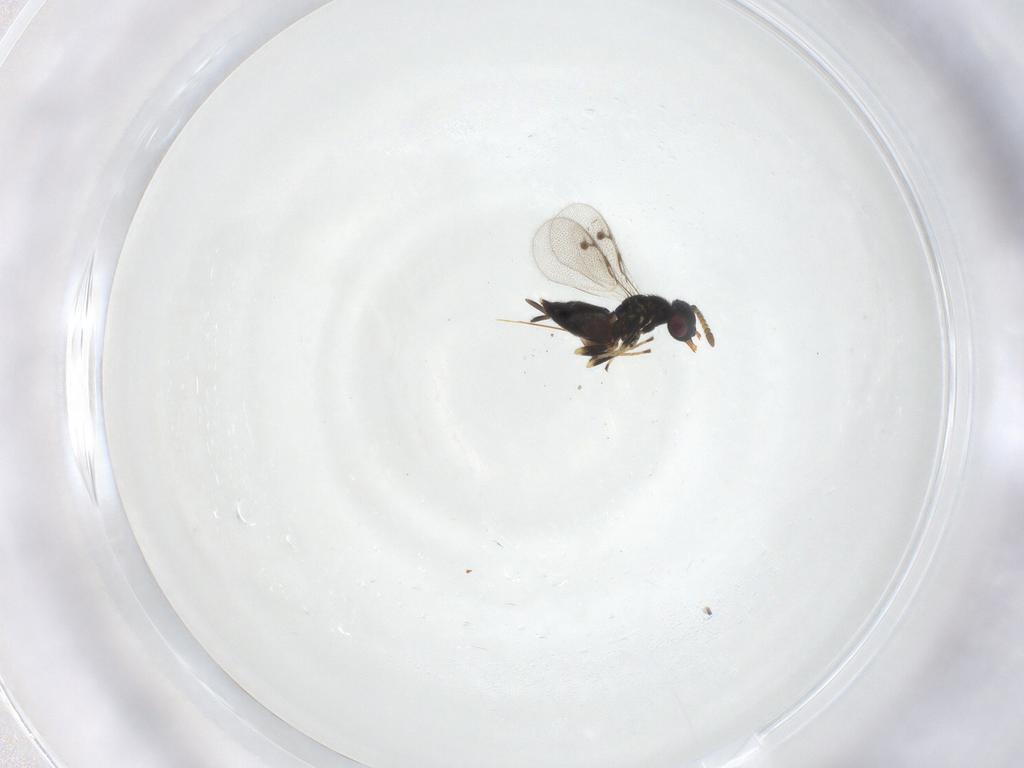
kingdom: Animalia
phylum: Arthropoda
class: Insecta
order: Hymenoptera
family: Pirenidae
